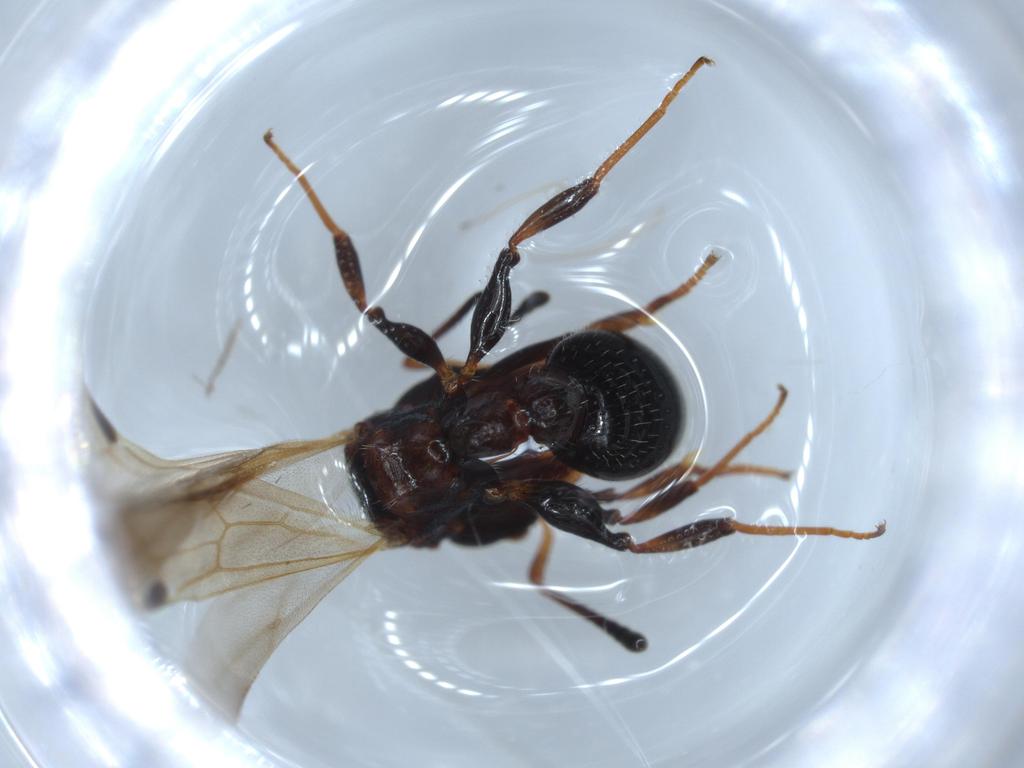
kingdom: Animalia
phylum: Arthropoda
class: Insecta
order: Hymenoptera
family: Formicidae
